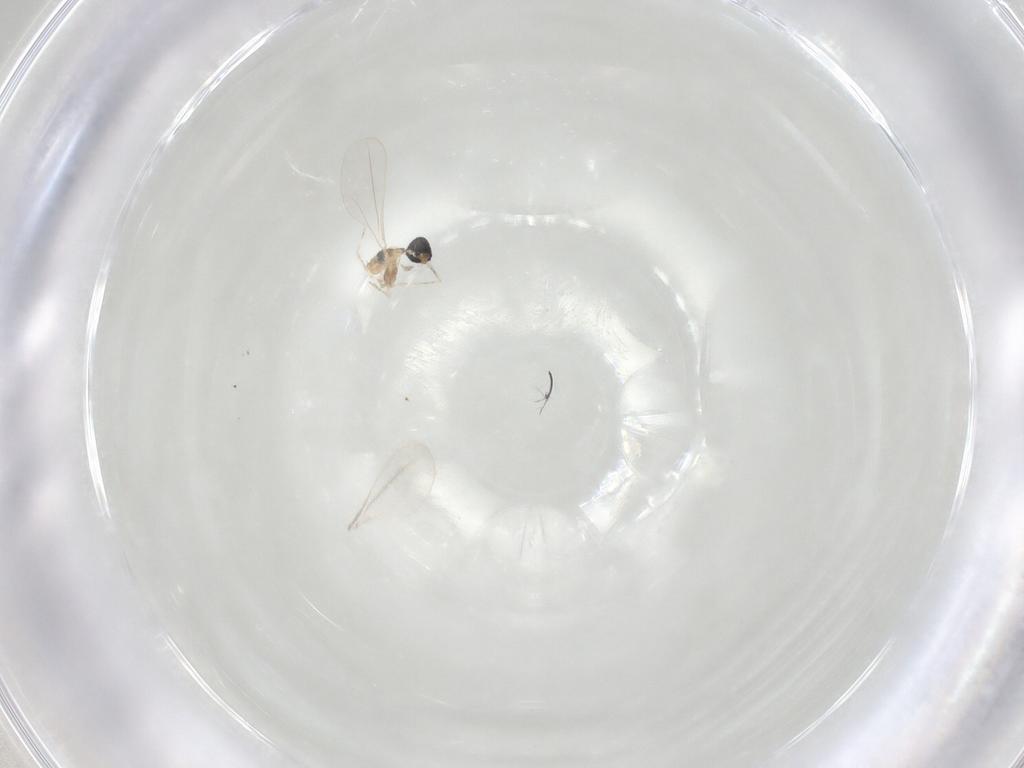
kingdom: Animalia
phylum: Arthropoda
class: Insecta
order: Diptera
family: Cecidomyiidae
